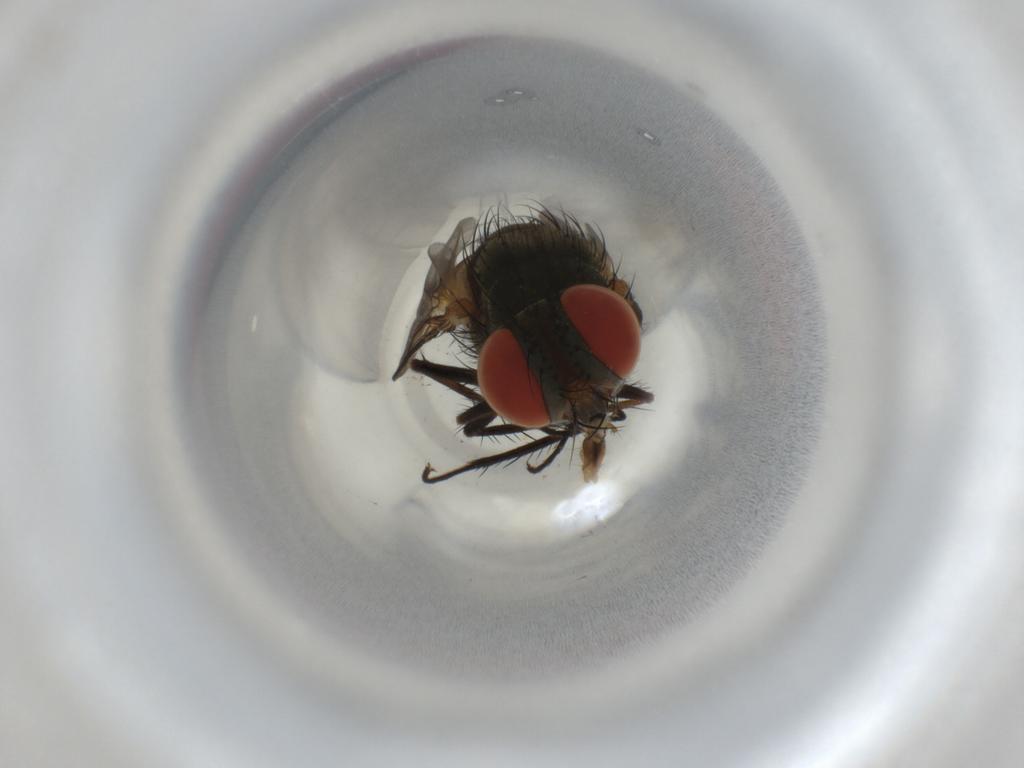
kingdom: Animalia
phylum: Arthropoda
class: Insecta
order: Diptera
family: Sarcophagidae
